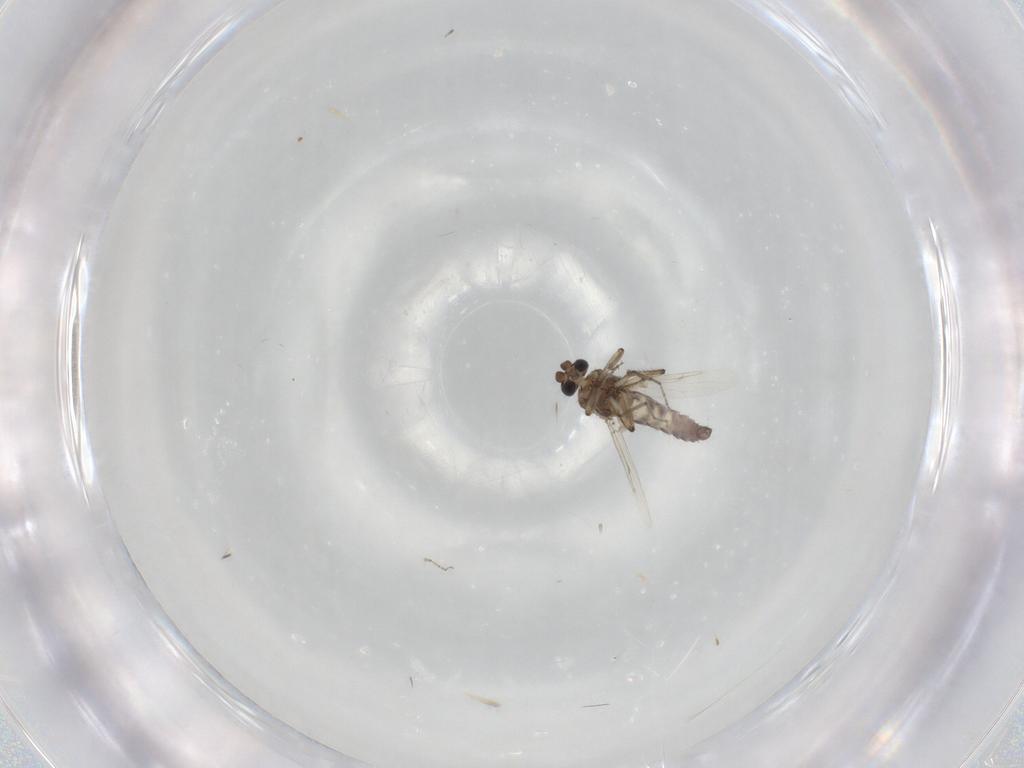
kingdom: Animalia
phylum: Arthropoda
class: Insecta
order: Diptera
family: Ceratopogonidae
